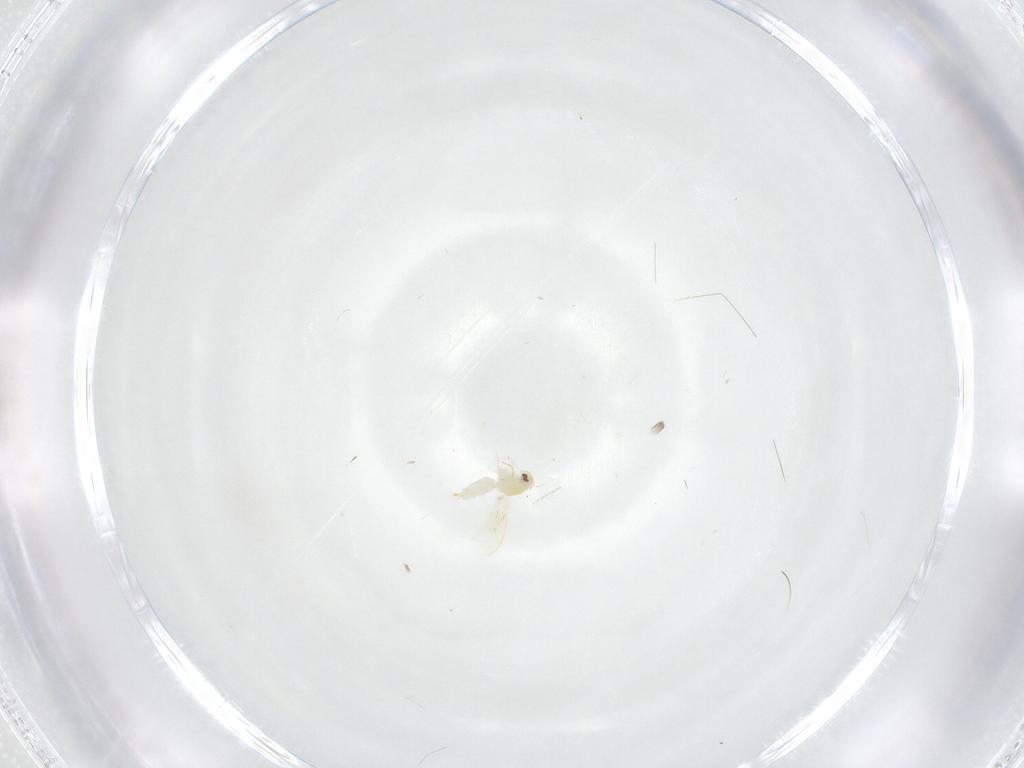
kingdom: Animalia
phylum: Arthropoda
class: Insecta
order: Hemiptera
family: Aleyrodidae
